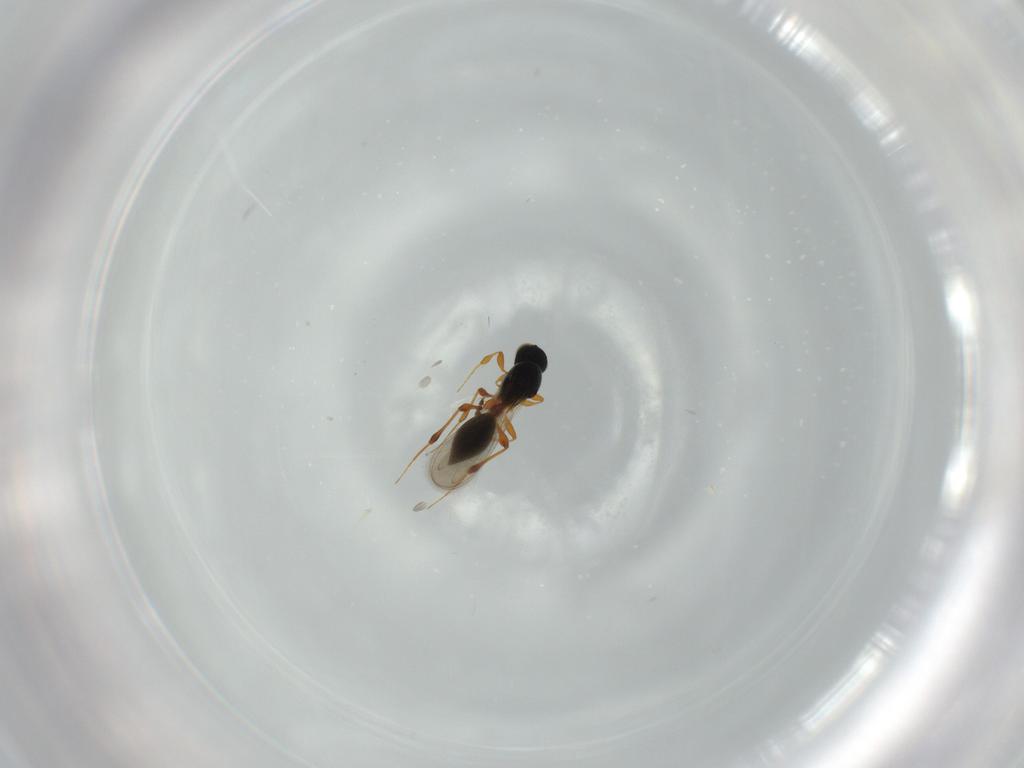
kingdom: Animalia
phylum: Arthropoda
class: Insecta
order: Hymenoptera
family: Platygastridae
